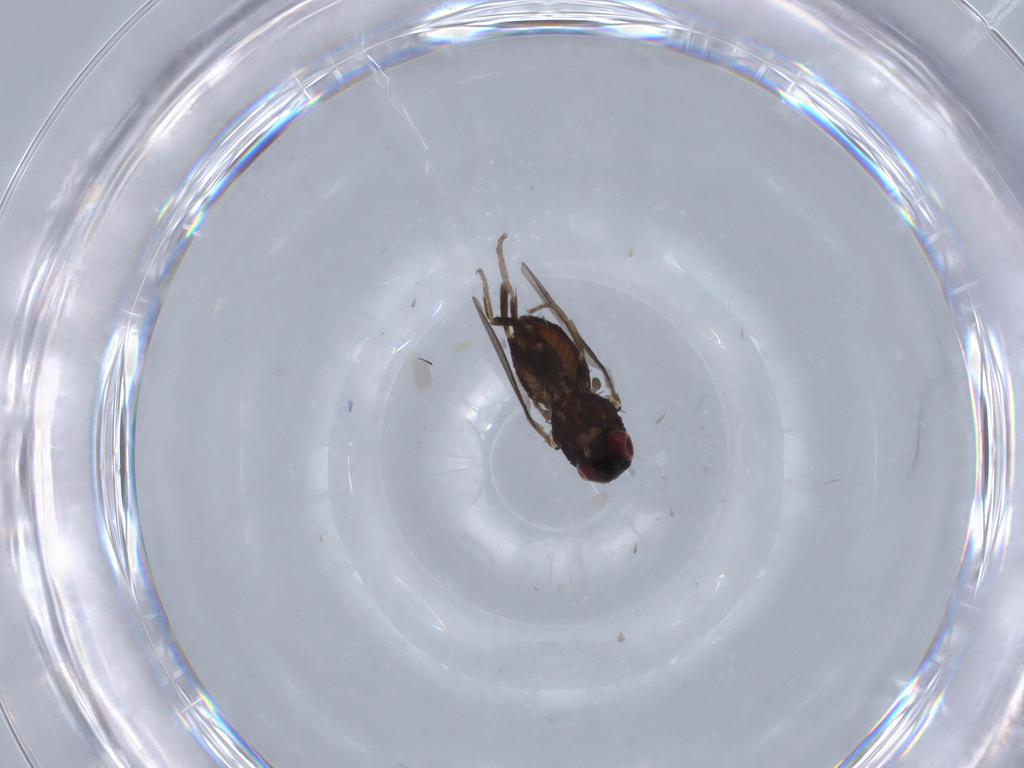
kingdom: Animalia
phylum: Arthropoda
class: Insecta
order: Diptera
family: Milichiidae
